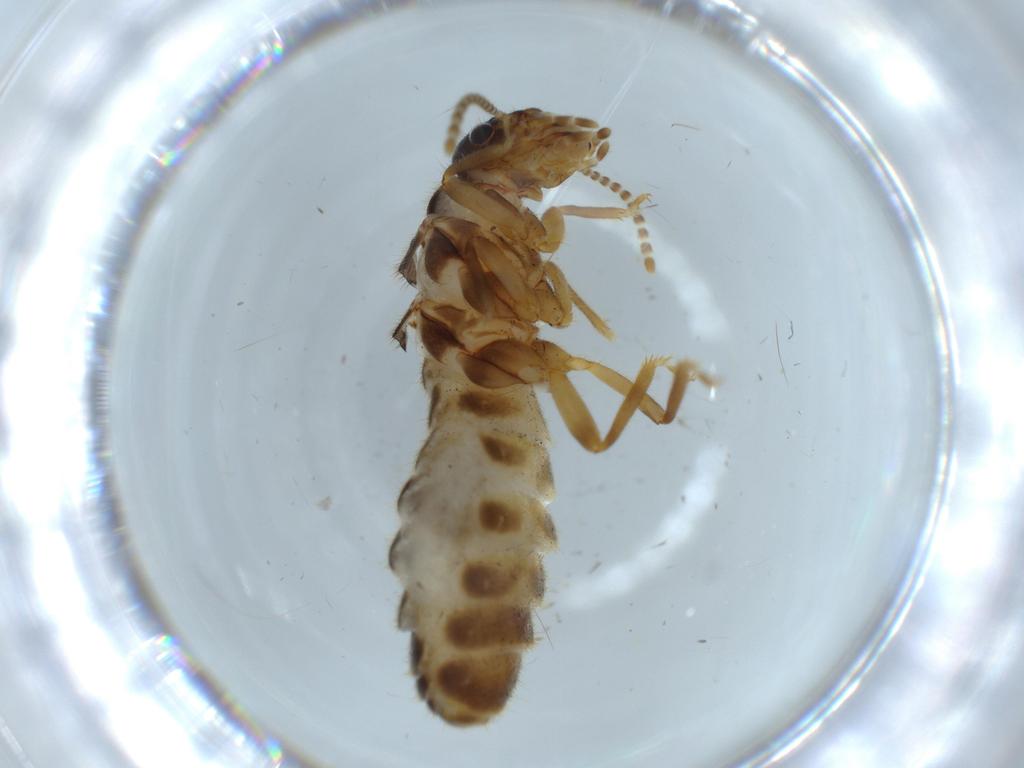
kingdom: Animalia
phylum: Arthropoda
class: Insecta
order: Blattodea
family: Termitidae
